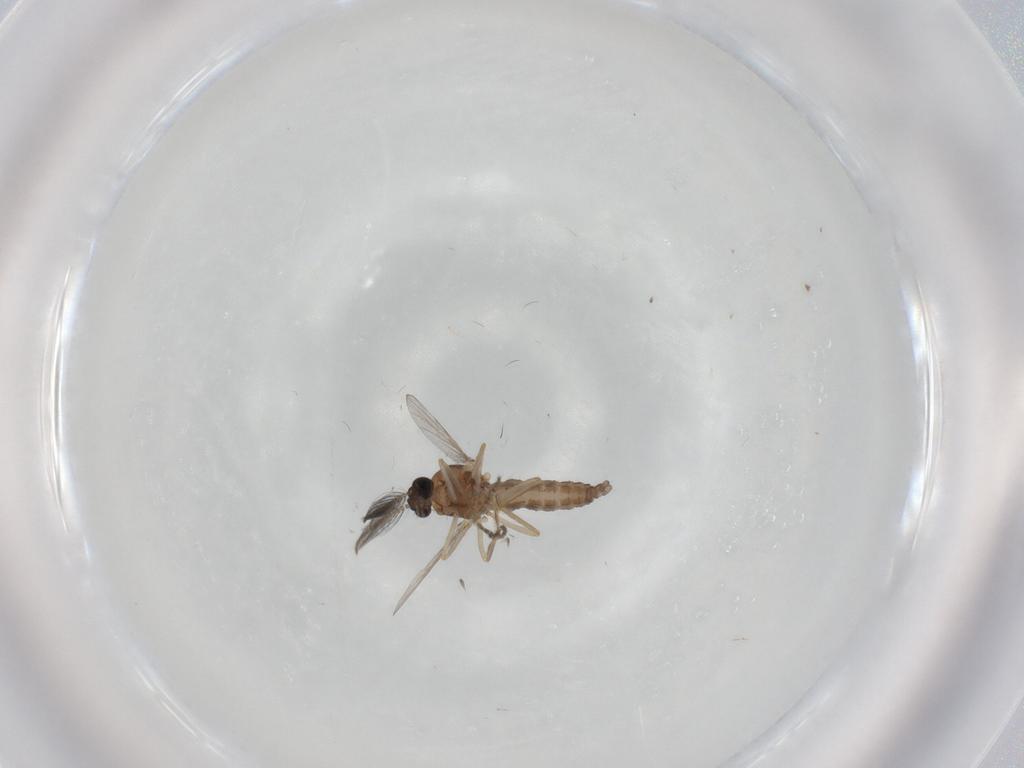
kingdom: Animalia
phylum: Arthropoda
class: Insecta
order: Diptera
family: Ceratopogonidae
